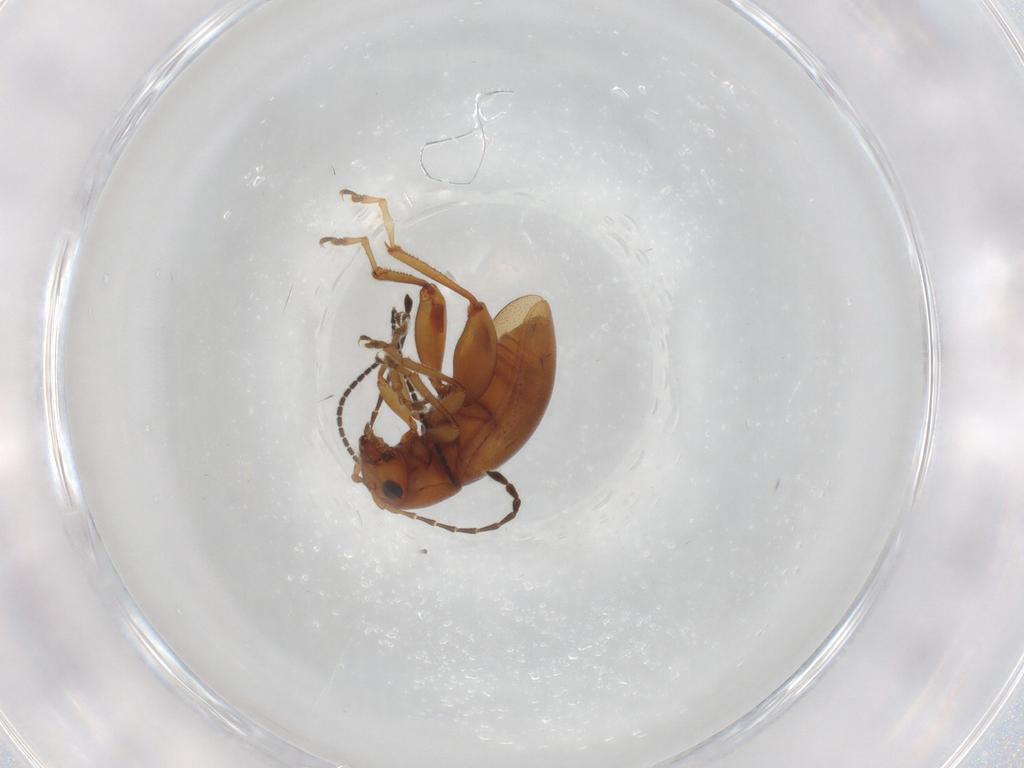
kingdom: Animalia
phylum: Arthropoda
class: Insecta
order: Coleoptera
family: Chrysomelidae
